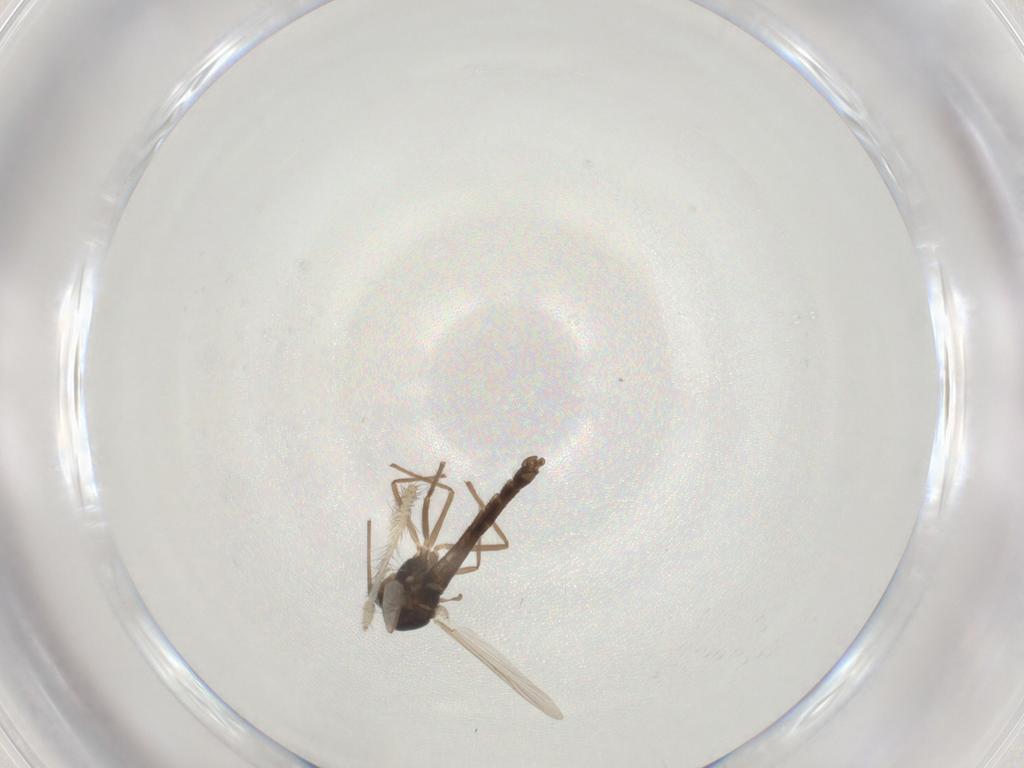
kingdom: Animalia
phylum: Arthropoda
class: Insecta
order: Diptera
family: Chironomidae
